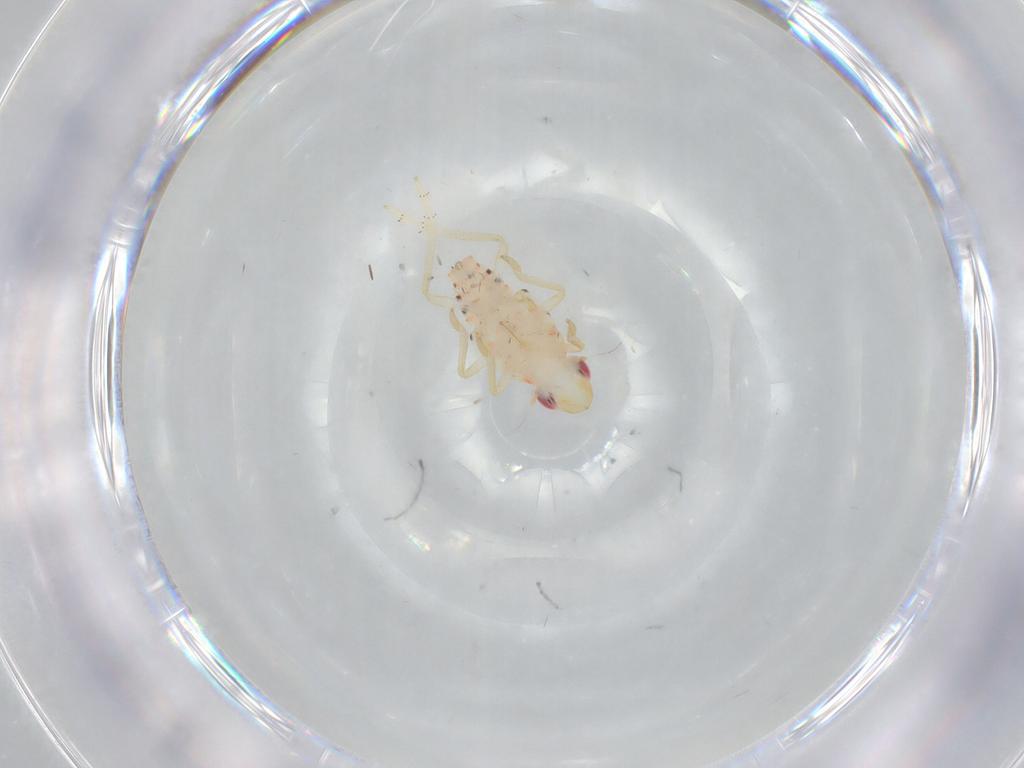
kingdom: Animalia
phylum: Arthropoda
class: Insecta
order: Hemiptera
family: Tropiduchidae
